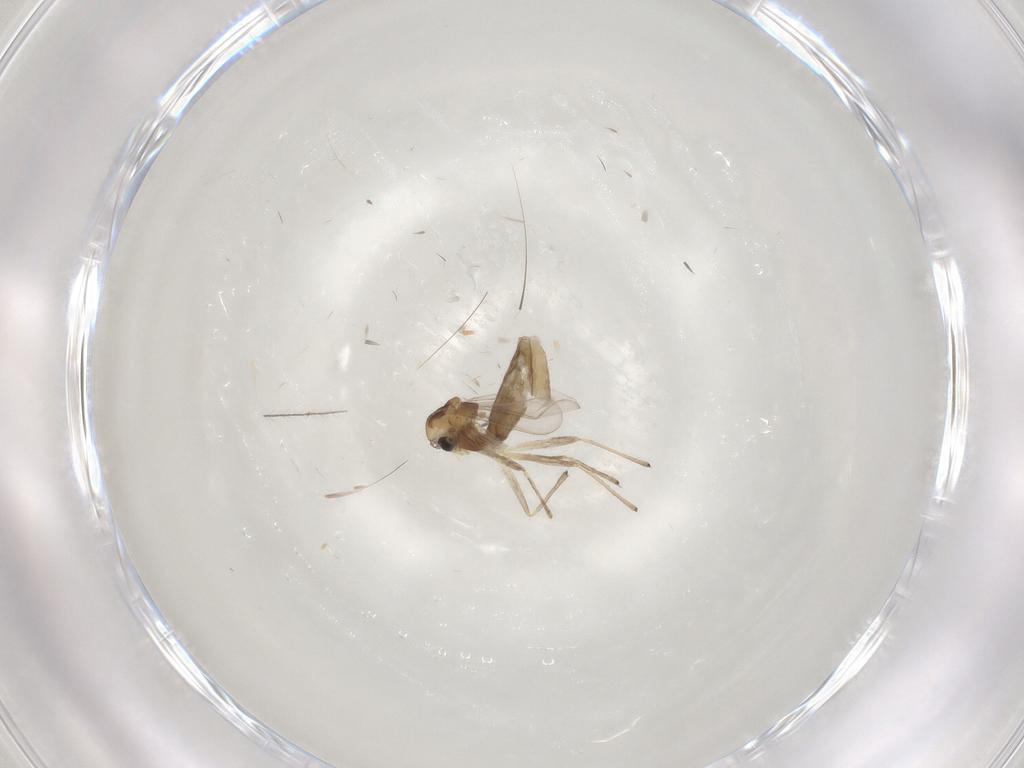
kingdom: Animalia
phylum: Arthropoda
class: Insecta
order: Diptera
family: Chironomidae
